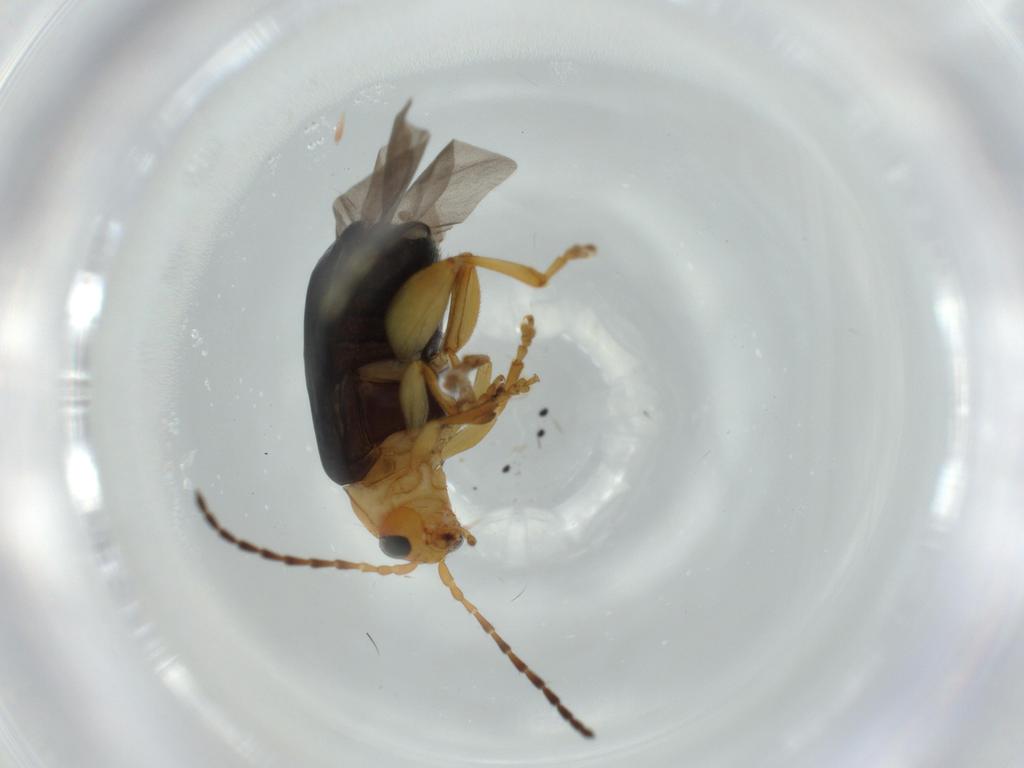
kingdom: Animalia
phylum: Arthropoda
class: Insecta
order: Coleoptera
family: Chrysomelidae
